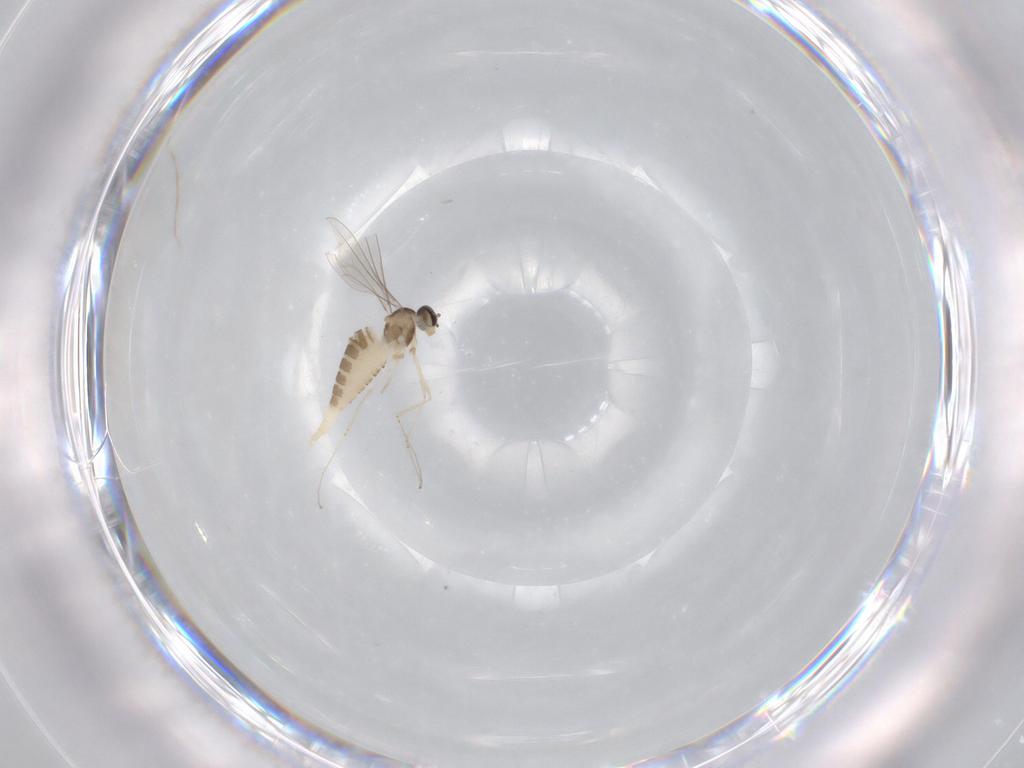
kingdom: Animalia
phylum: Arthropoda
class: Insecta
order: Diptera
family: Cecidomyiidae
